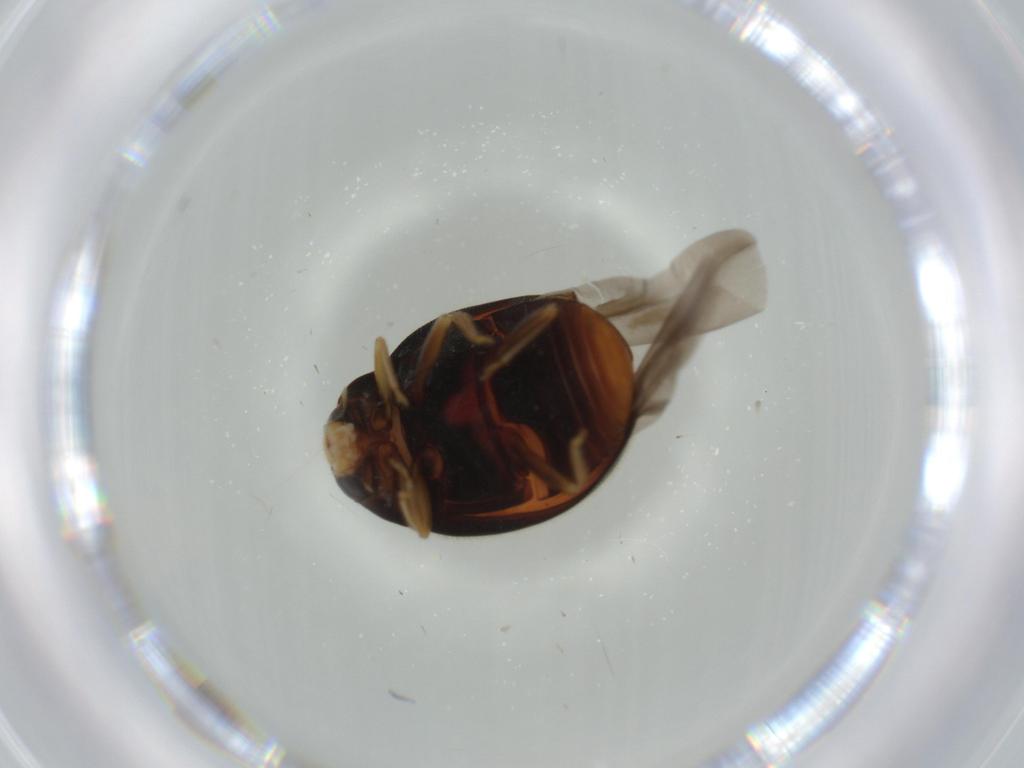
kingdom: Animalia
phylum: Arthropoda
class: Insecta
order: Coleoptera
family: Coccinellidae
